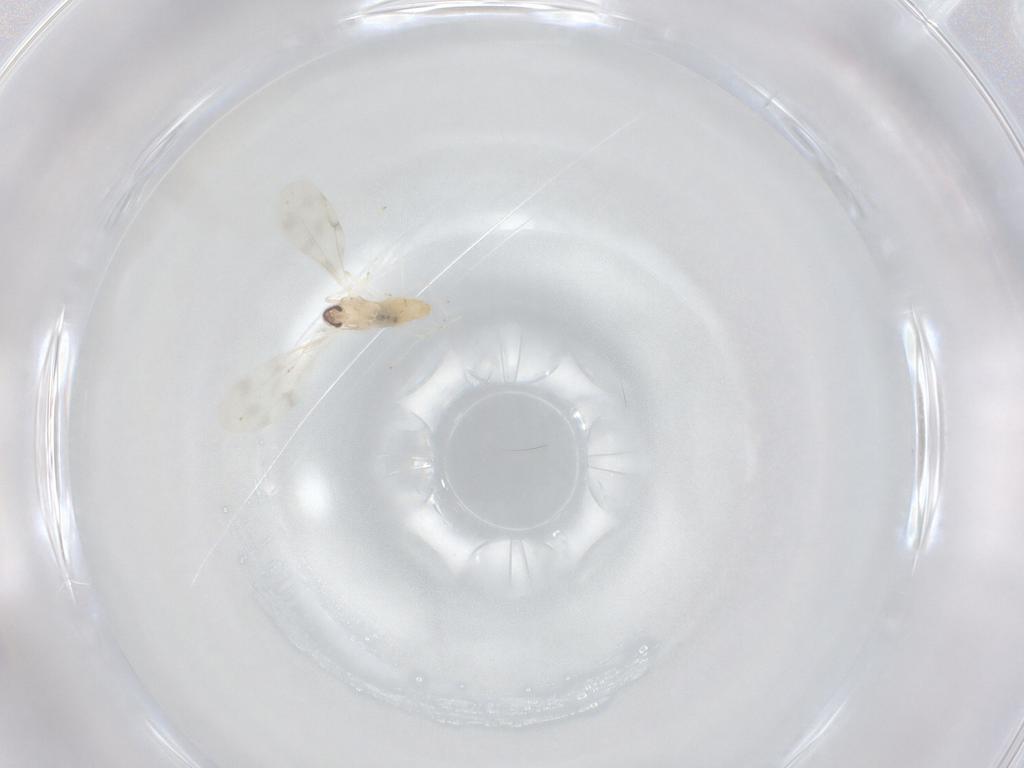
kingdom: Animalia
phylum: Arthropoda
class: Insecta
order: Diptera
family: Cecidomyiidae
